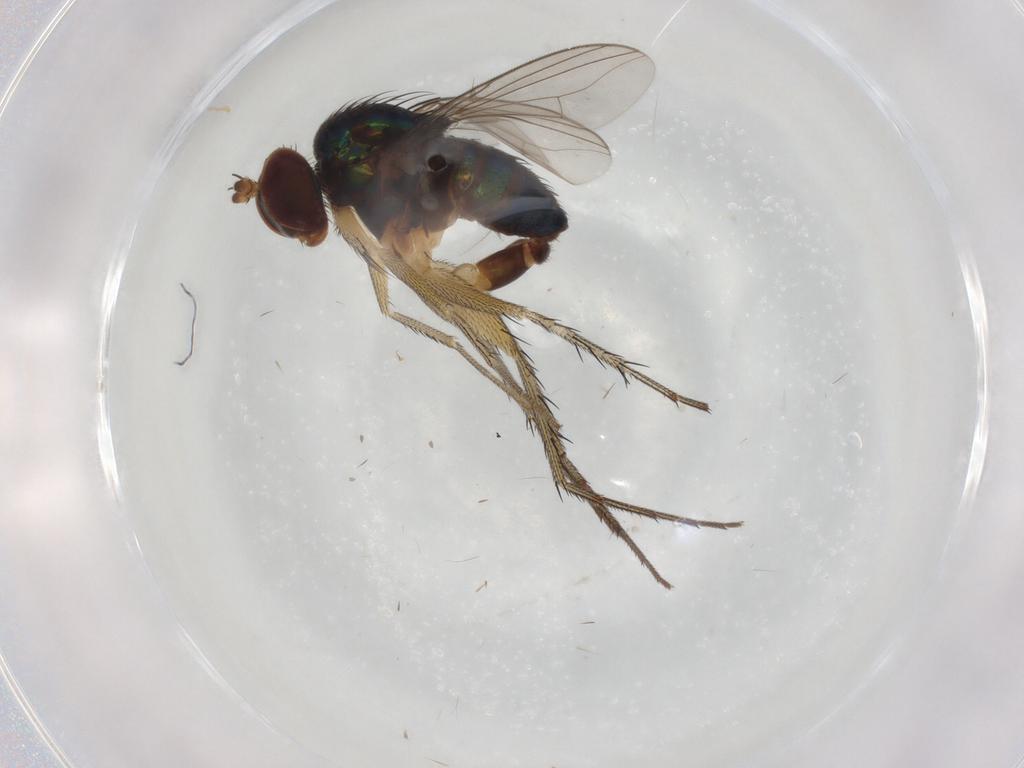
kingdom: Animalia
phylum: Arthropoda
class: Insecta
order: Diptera
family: Dolichopodidae
